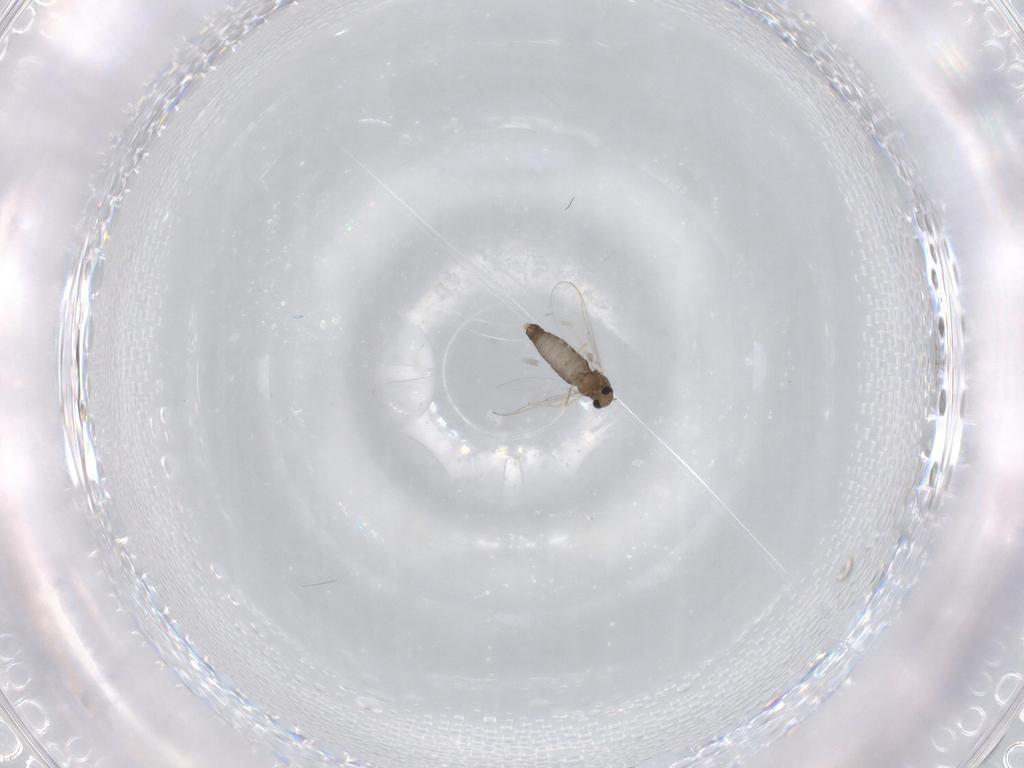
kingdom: Animalia
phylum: Arthropoda
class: Insecta
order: Diptera
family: Chironomidae
